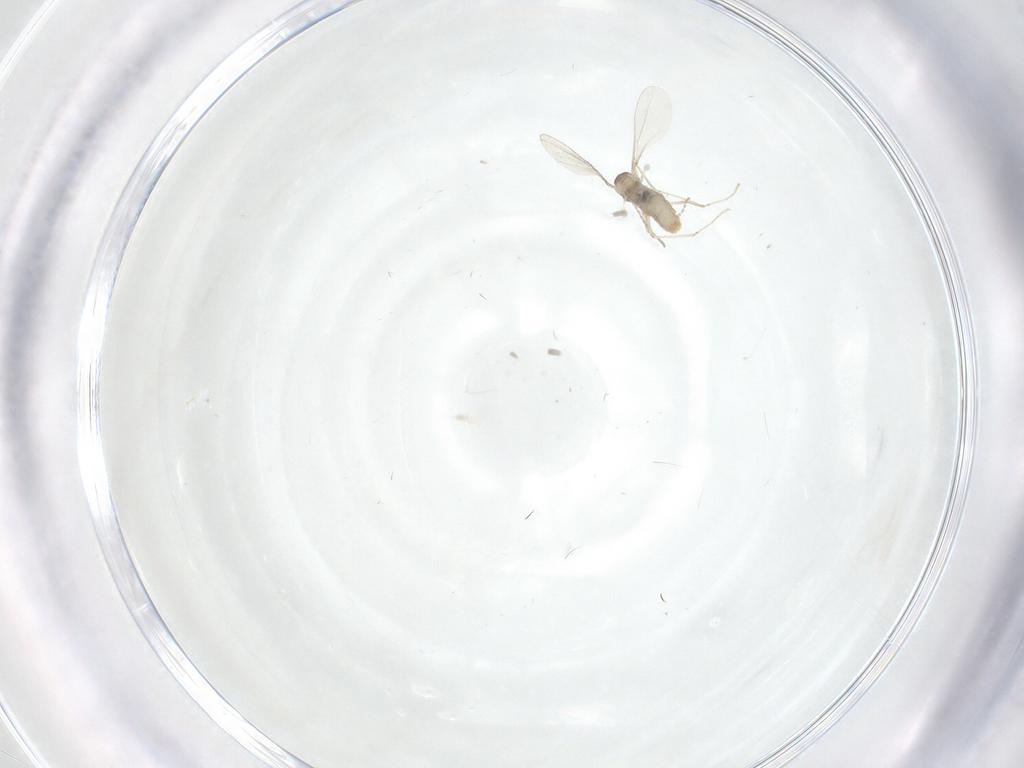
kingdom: Animalia
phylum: Arthropoda
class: Insecta
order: Diptera
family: Cecidomyiidae
